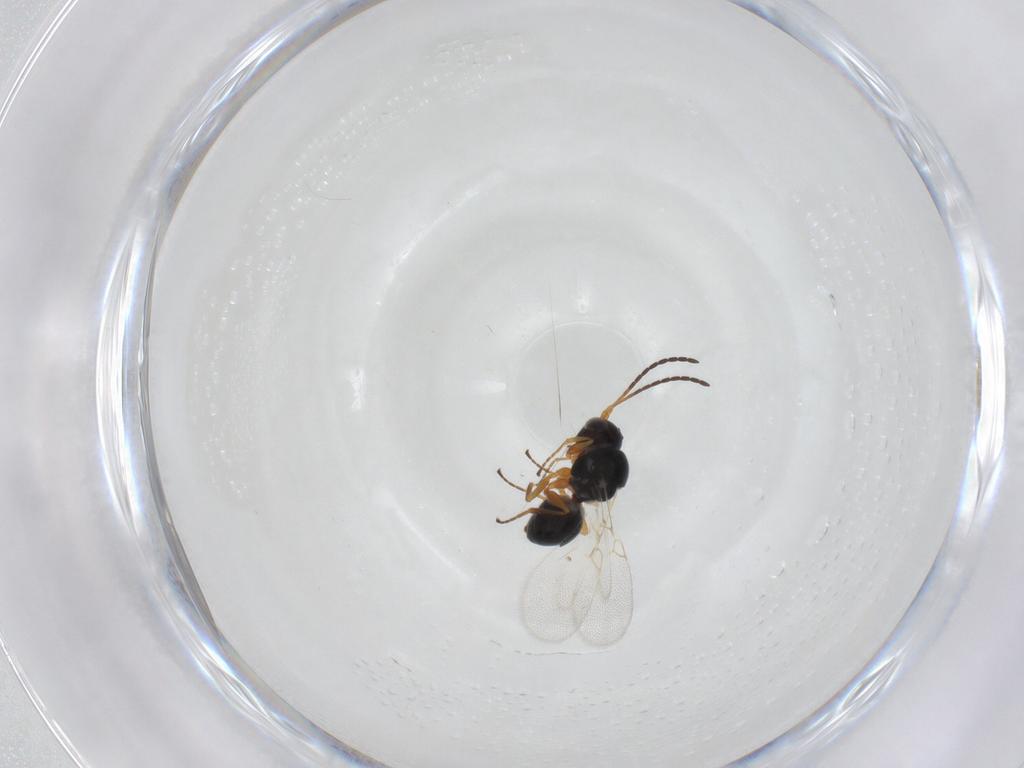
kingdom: Animalia
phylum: Arthropoda
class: Insecta
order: Hymenoptera
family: Figitidae
